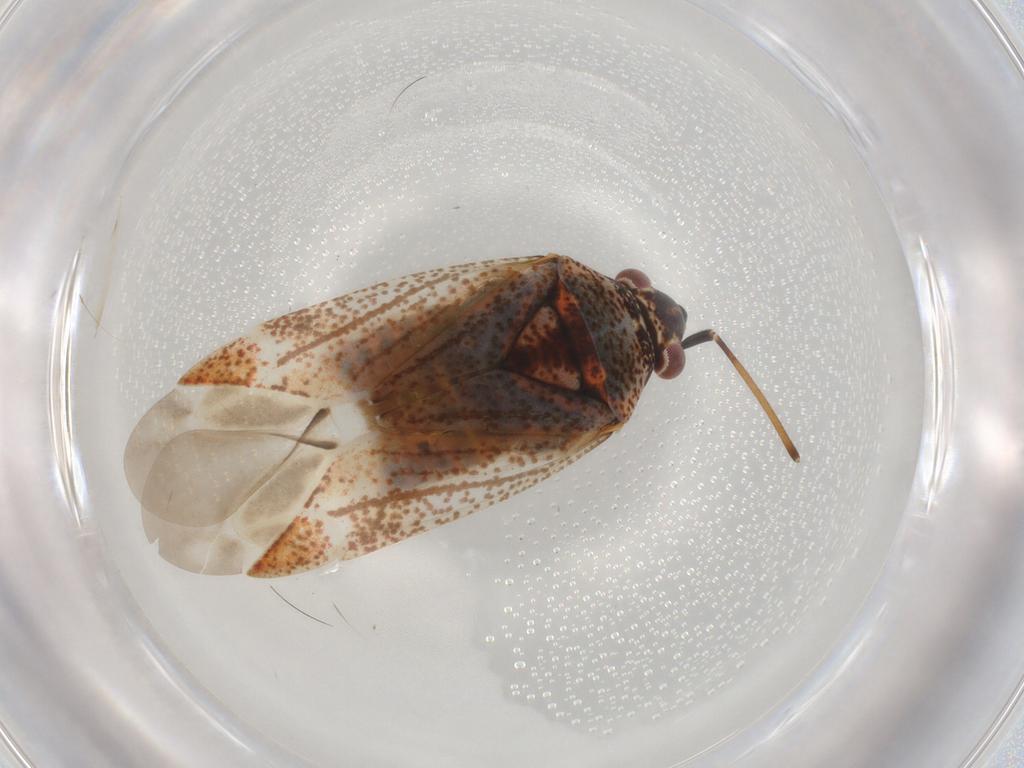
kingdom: Animalia
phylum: Arthropoda
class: Insecta
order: Hemiptera
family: Miridae
